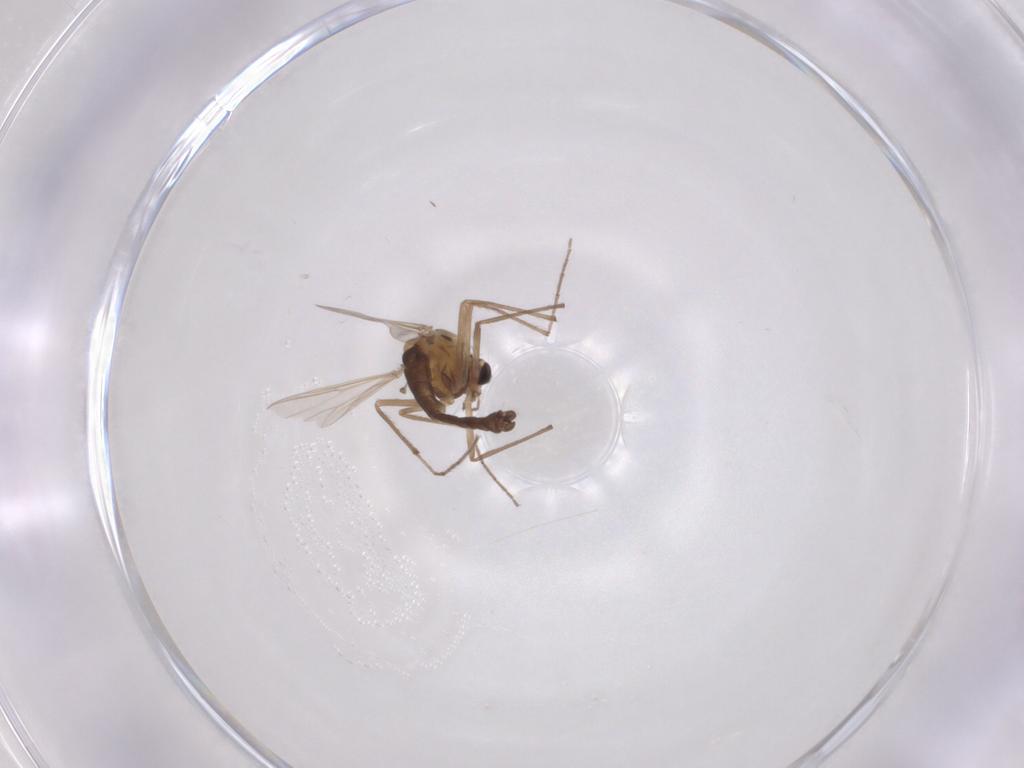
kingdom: Animalia
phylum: Arthropoda
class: Insecta
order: Diptera
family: Chironomidae
